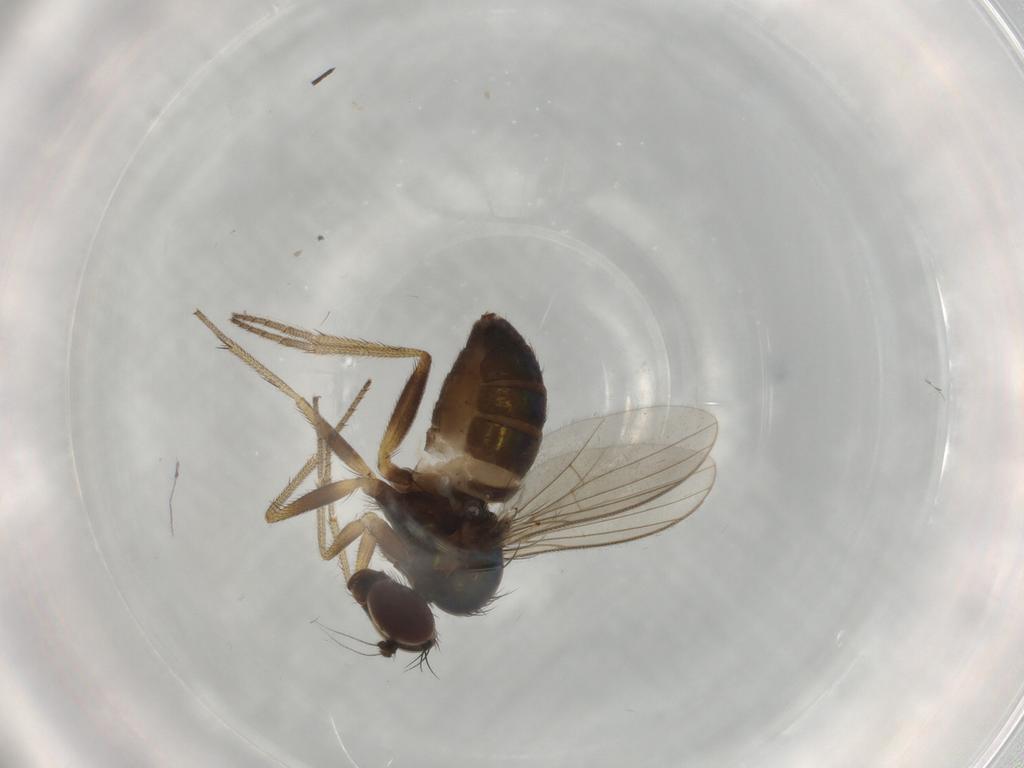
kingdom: Animalia
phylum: Arthropoda
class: Insecta
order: Diptera
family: Dolichopodidae
